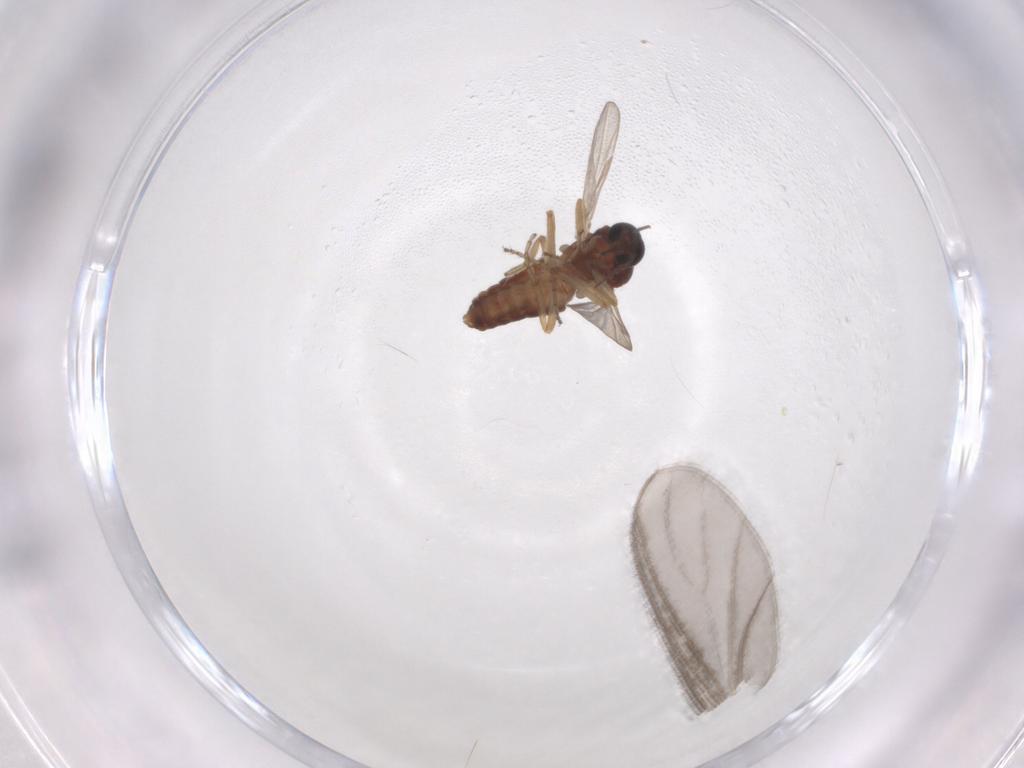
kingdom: Animalia
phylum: Arthropoda
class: Insecta
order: Diptera
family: Ceratopogonidae
